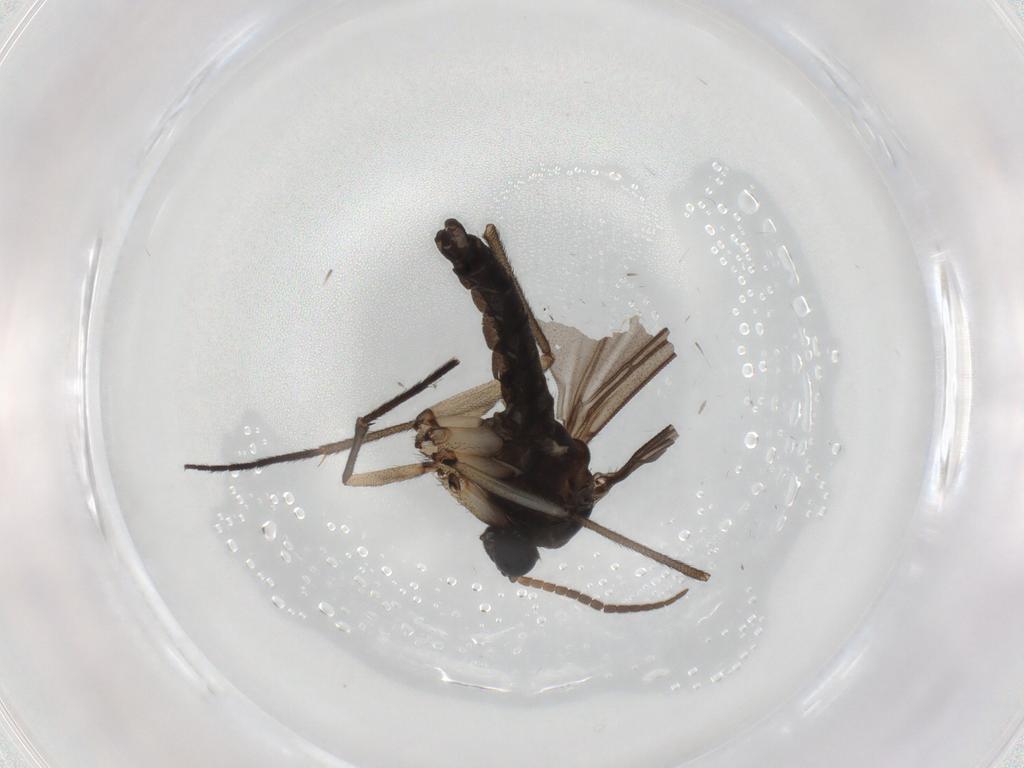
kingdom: Animalia
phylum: Arthropoda
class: Insecta
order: Diptera
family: Sciaridae
